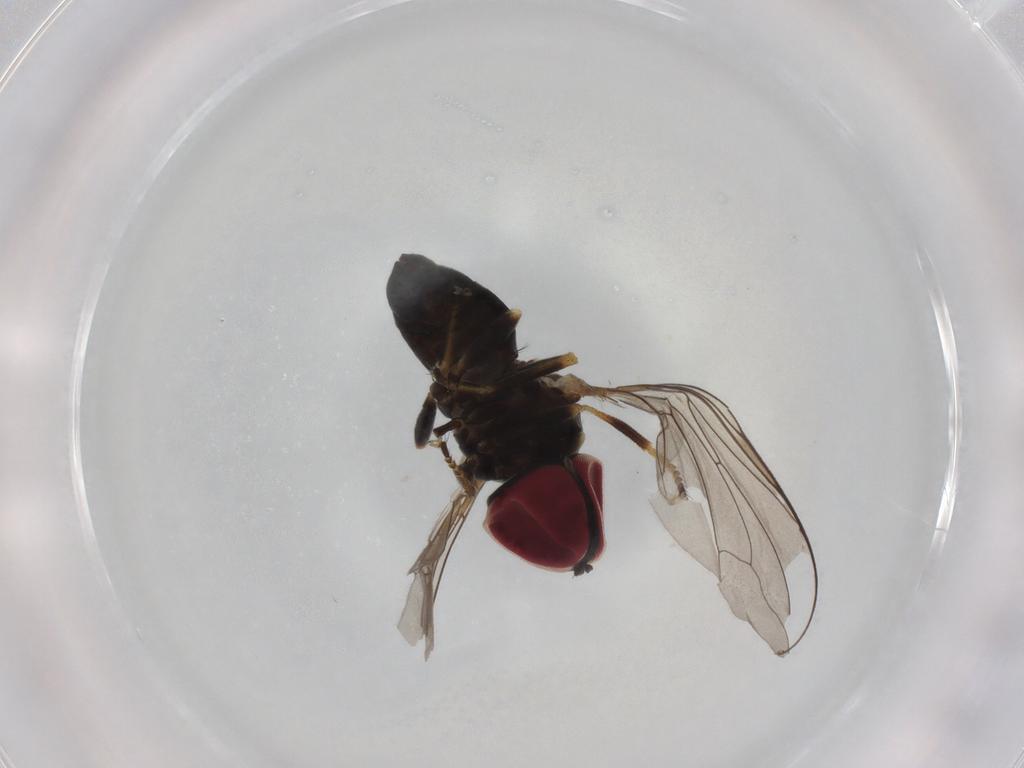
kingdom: Animalia
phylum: Arthropoda
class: Insecta
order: Diptera
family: Pipunculidae
